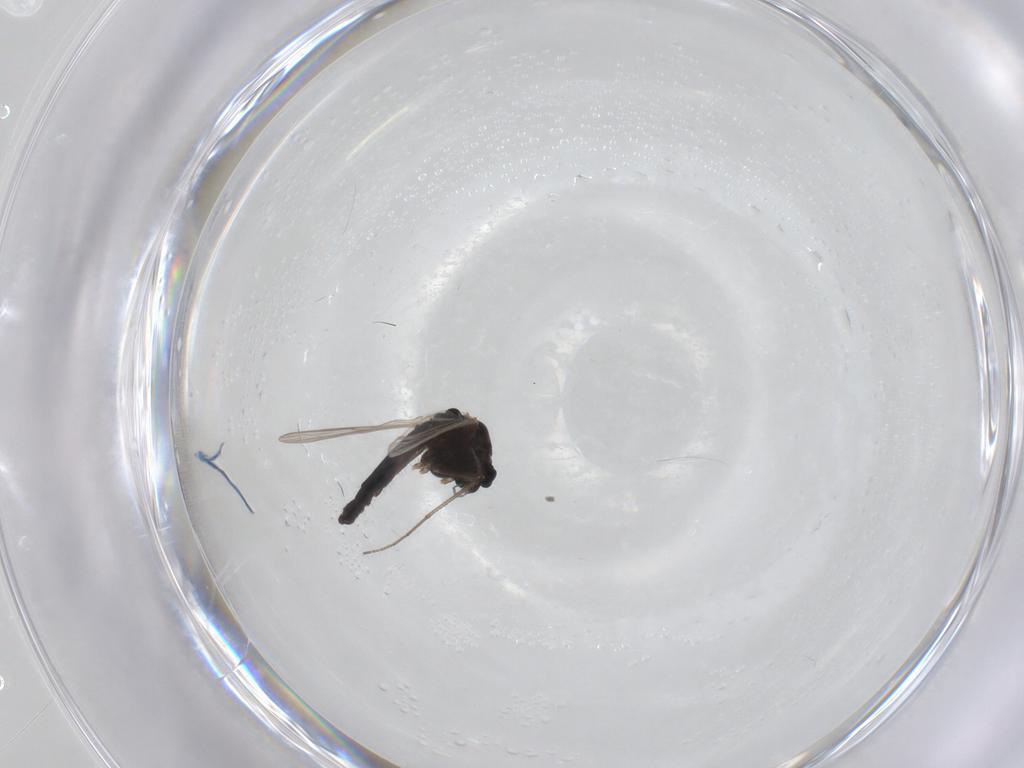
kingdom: Animalia
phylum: Arthropoda
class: Insecta
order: Diptera
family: Chironomidae
